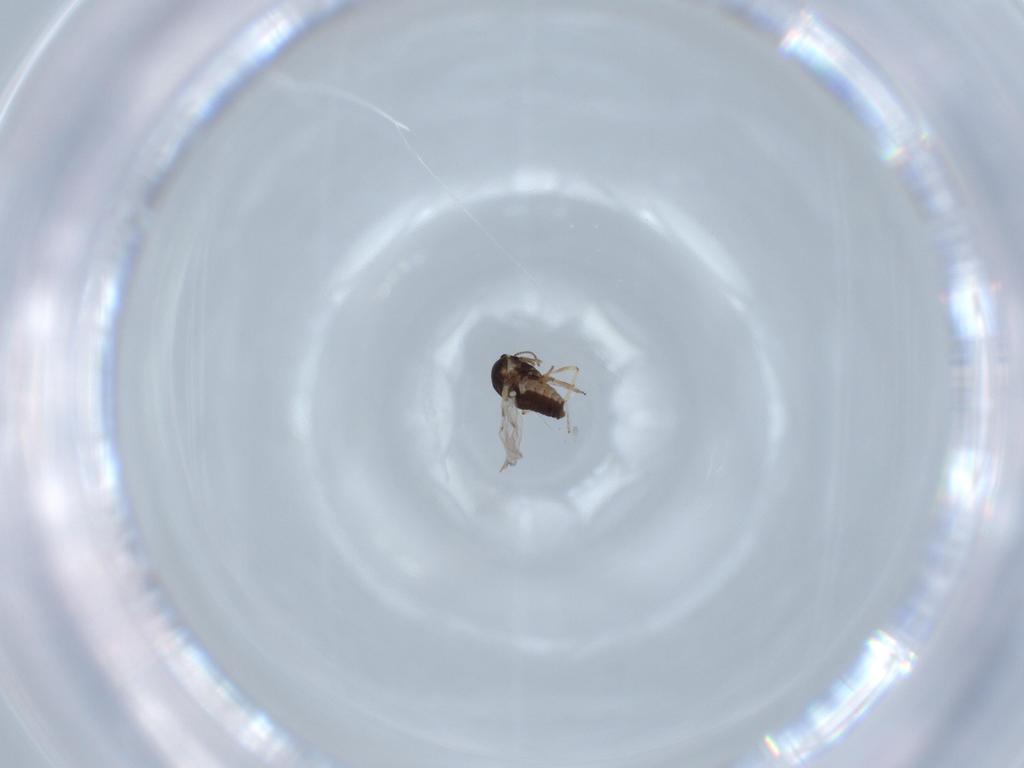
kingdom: Animalia
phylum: Arthropoda
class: Insecta
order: Diptera
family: Ceratopogonidae
